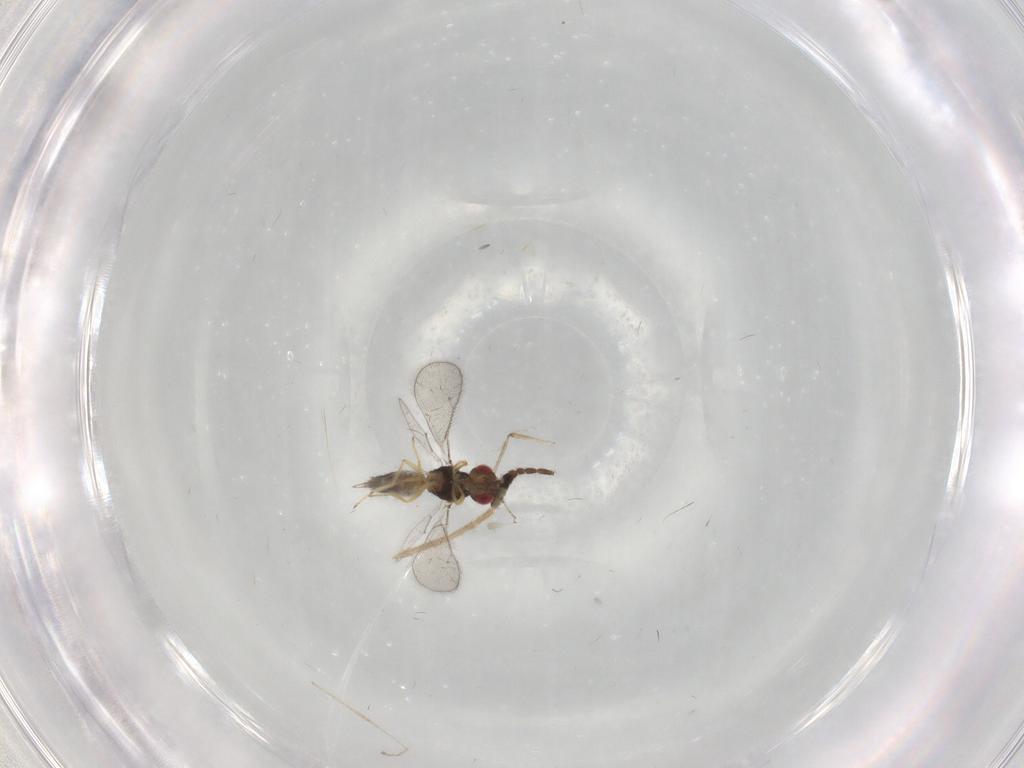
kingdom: Animalia
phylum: Arthropoda
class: Insecta
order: Hymenoptera
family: Eulophidae
